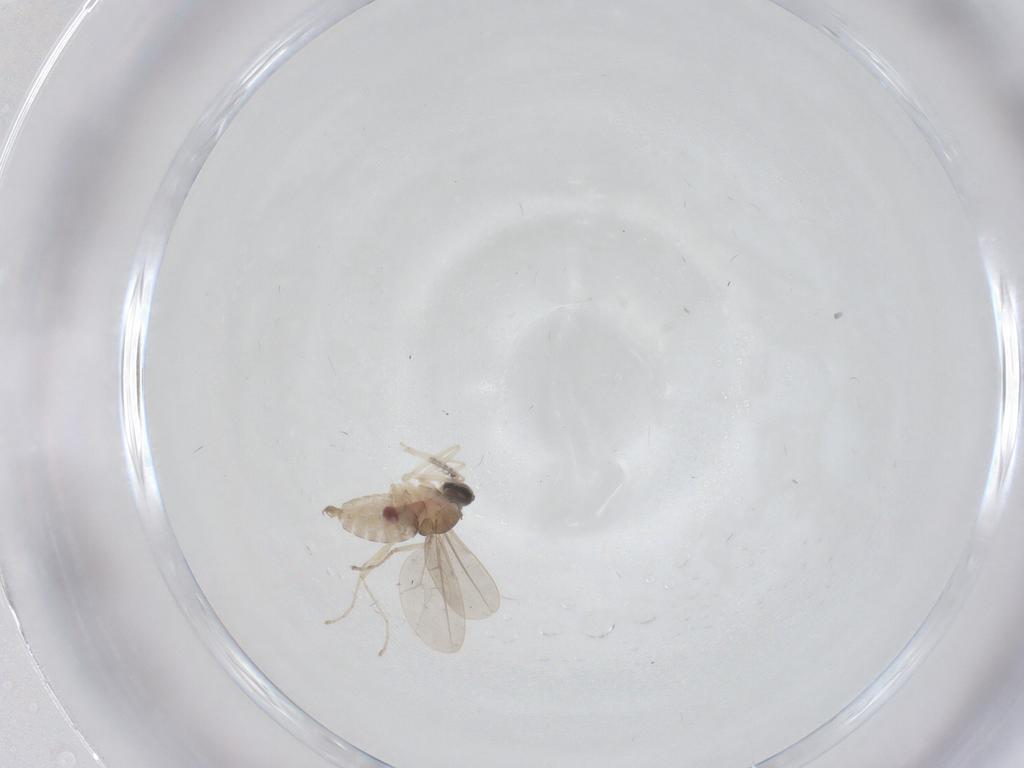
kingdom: Animalia
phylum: Arthropoda
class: Insecta
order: Diptera
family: Cecidomyiidae
